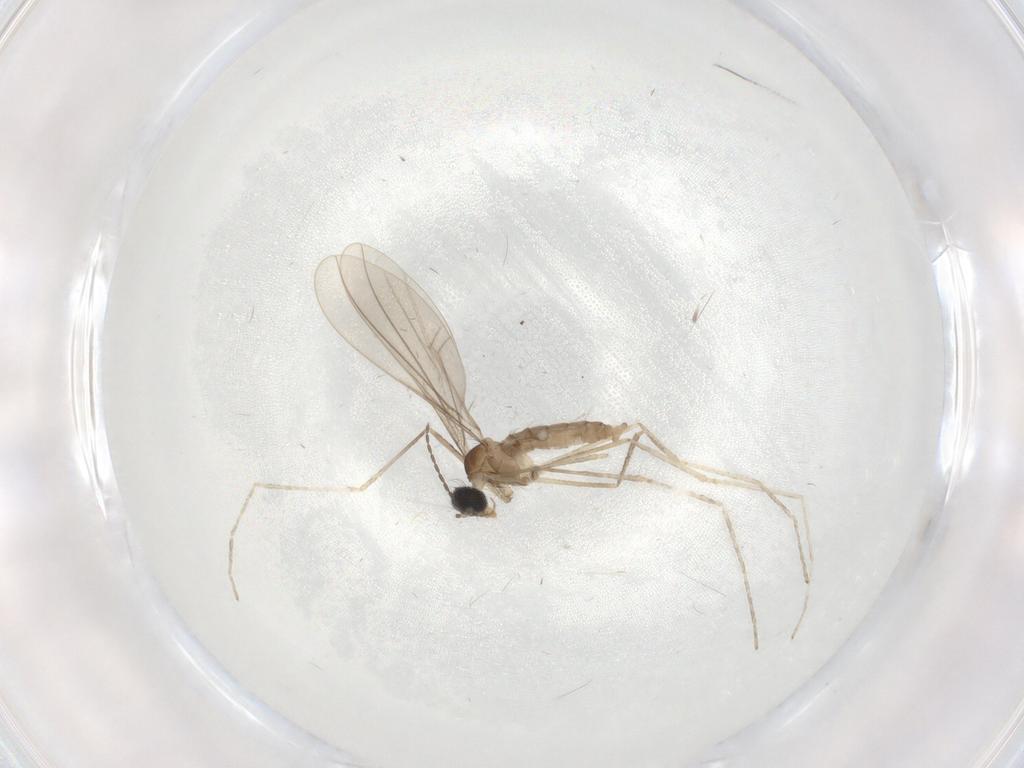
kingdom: Animalia
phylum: Arthropoda
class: Insecta
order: Diptera
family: Cecidomyiidae
